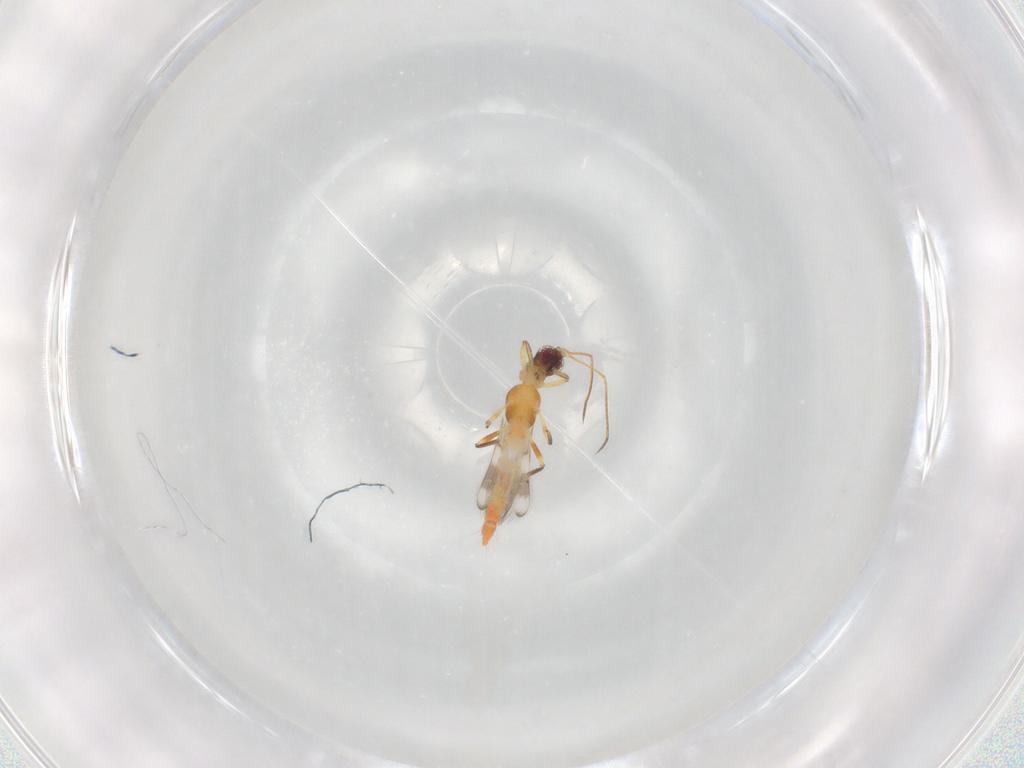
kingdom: Animalia
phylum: Arthropoda
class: Insecta
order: Thysanoptera
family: Aeolothripidae
